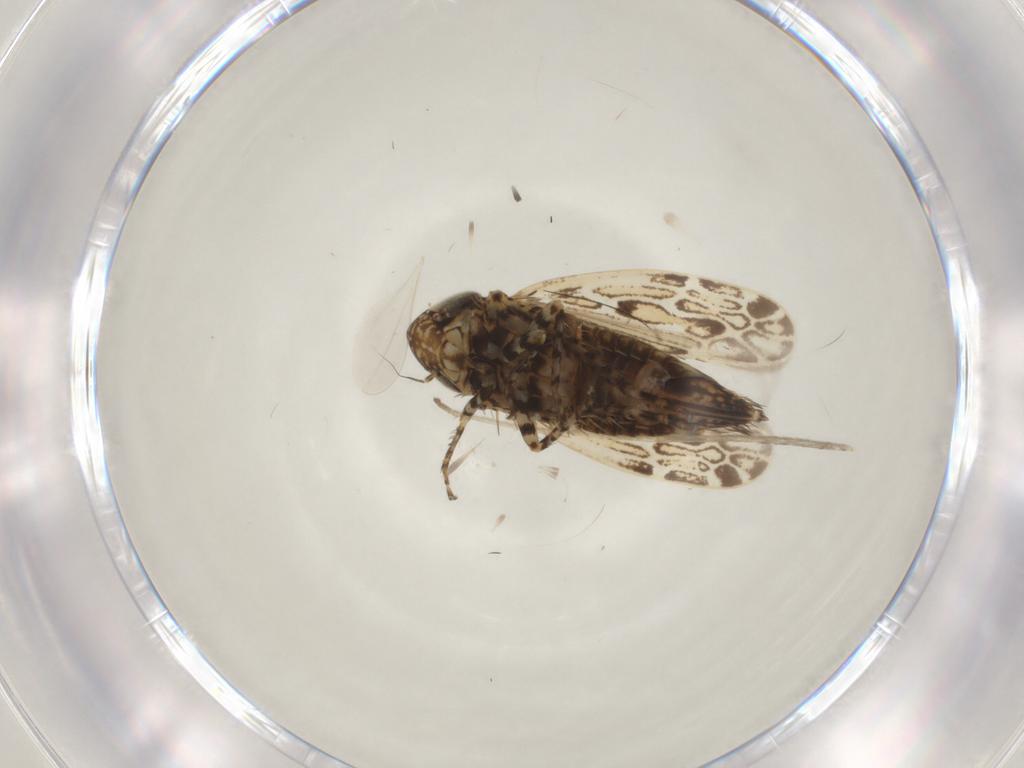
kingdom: Animalia
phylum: Arthropoda
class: Insecta
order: Hemiptera
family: Cicadellidae
